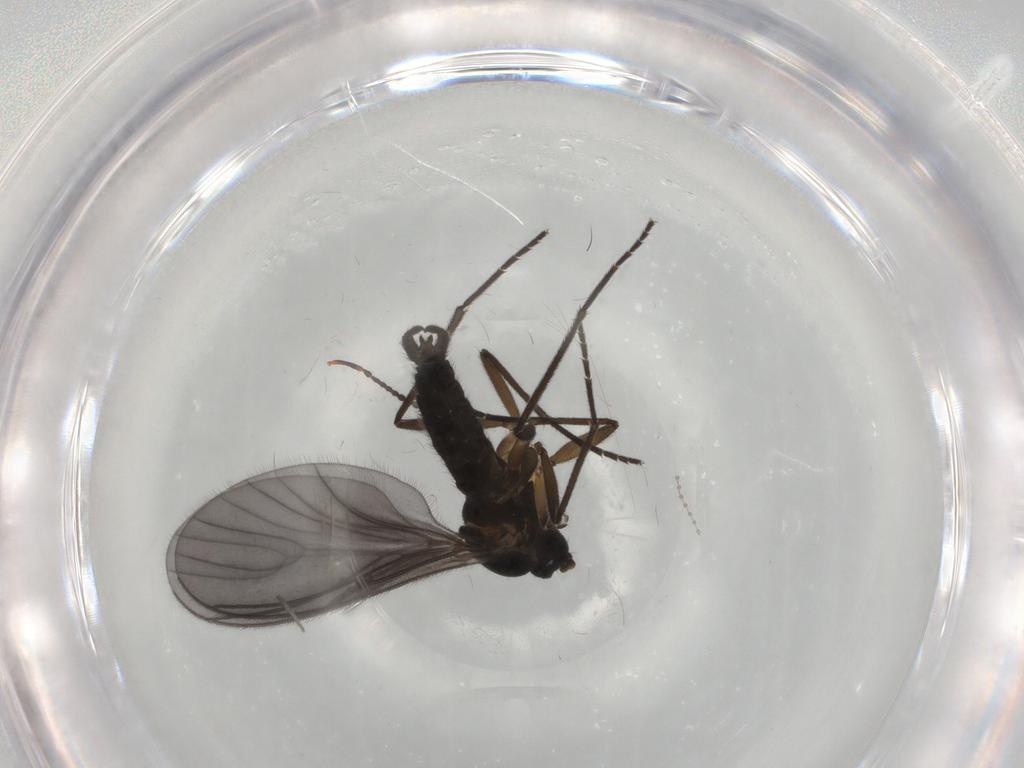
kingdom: Animalia
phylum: Arthropoda
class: Insecta
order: Diptera
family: Mycetophilidae
